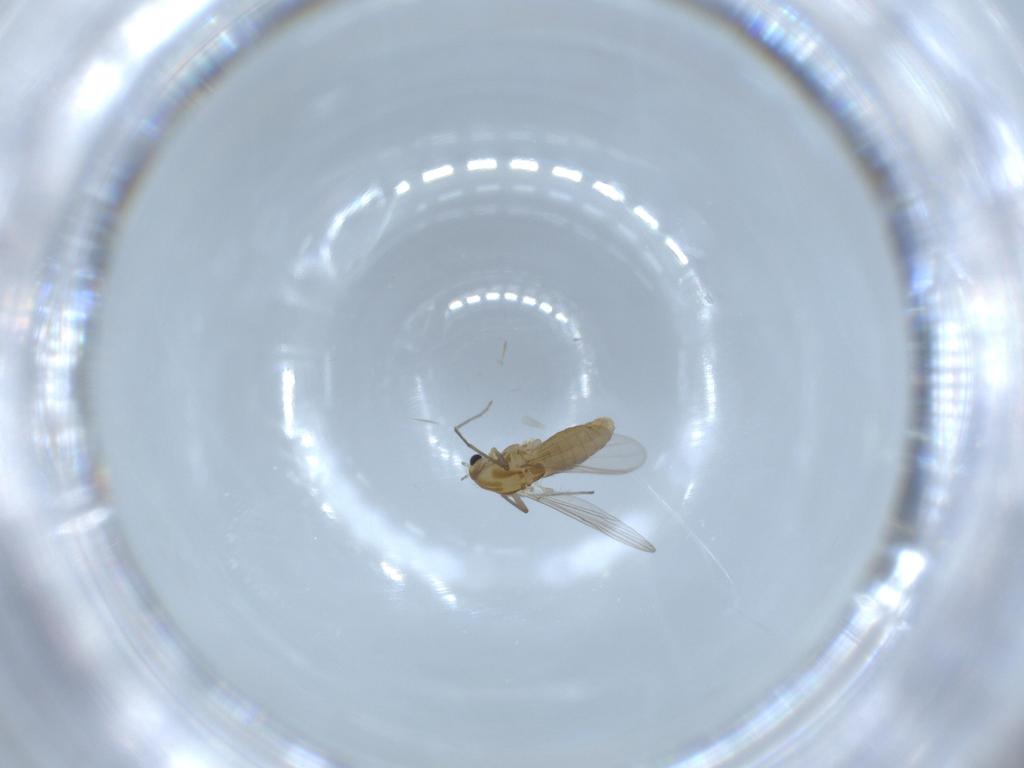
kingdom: Animalia
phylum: Arthropoda
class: Insecta
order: Diptera
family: Chironomidae
